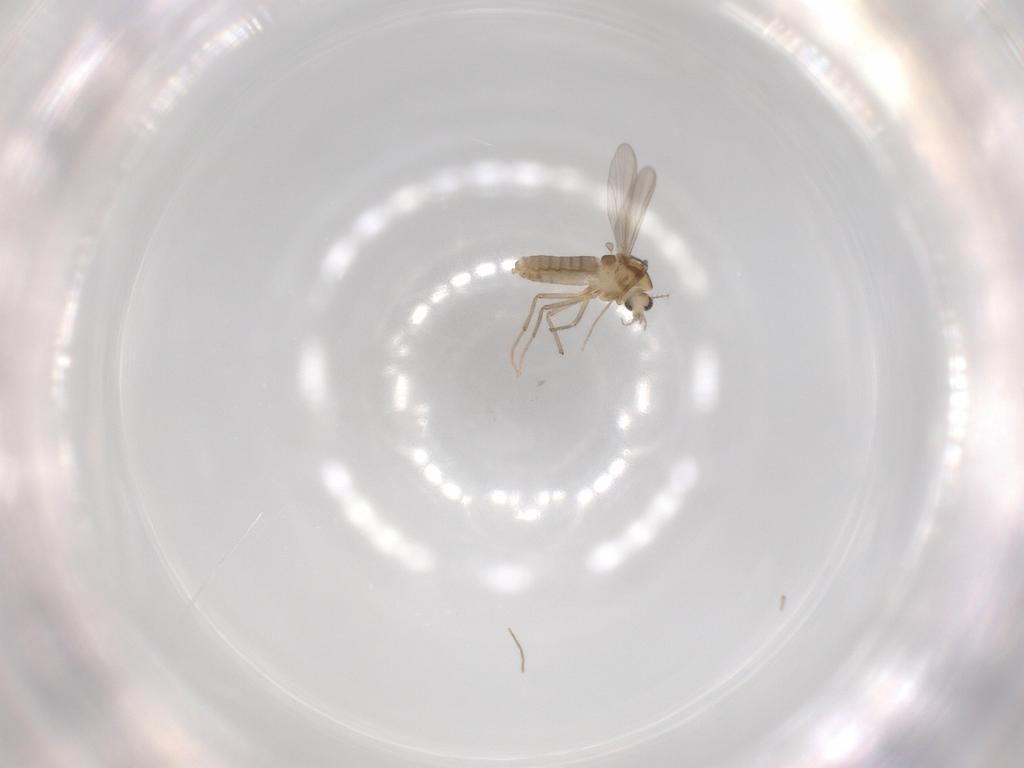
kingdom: Animalia
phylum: Arthropoda
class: Insecta
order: Diptera
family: Chironomidae
